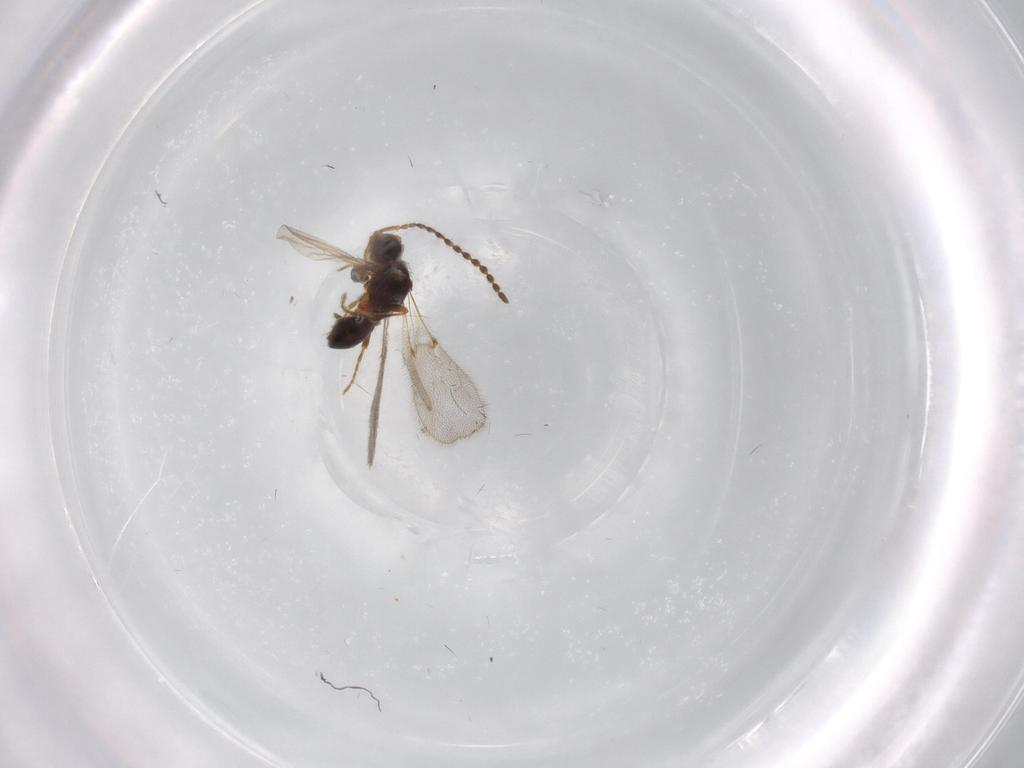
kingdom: Animalia
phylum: Arthropoda
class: Insecta
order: Hymenoptera
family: Diapriidae
